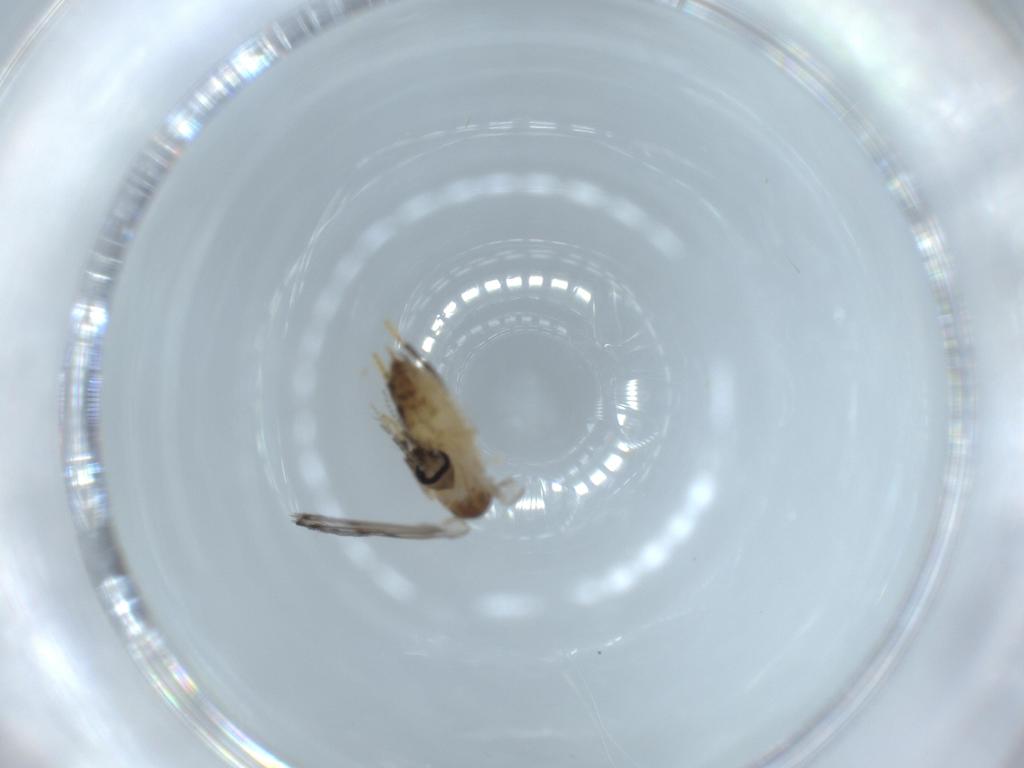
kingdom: Animalia
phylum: Arthropoda
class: Insecta
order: Diptera
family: Psychodidae
